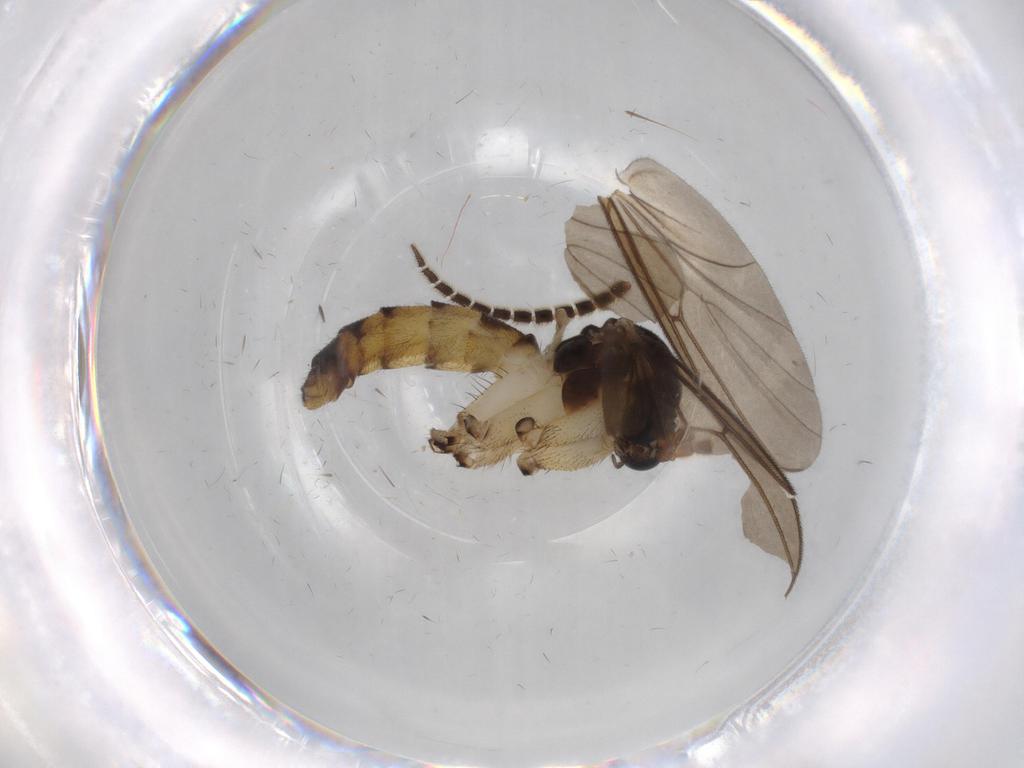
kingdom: Animalia
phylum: Arthropoda
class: Insecta
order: Diptera
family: Phoridae
